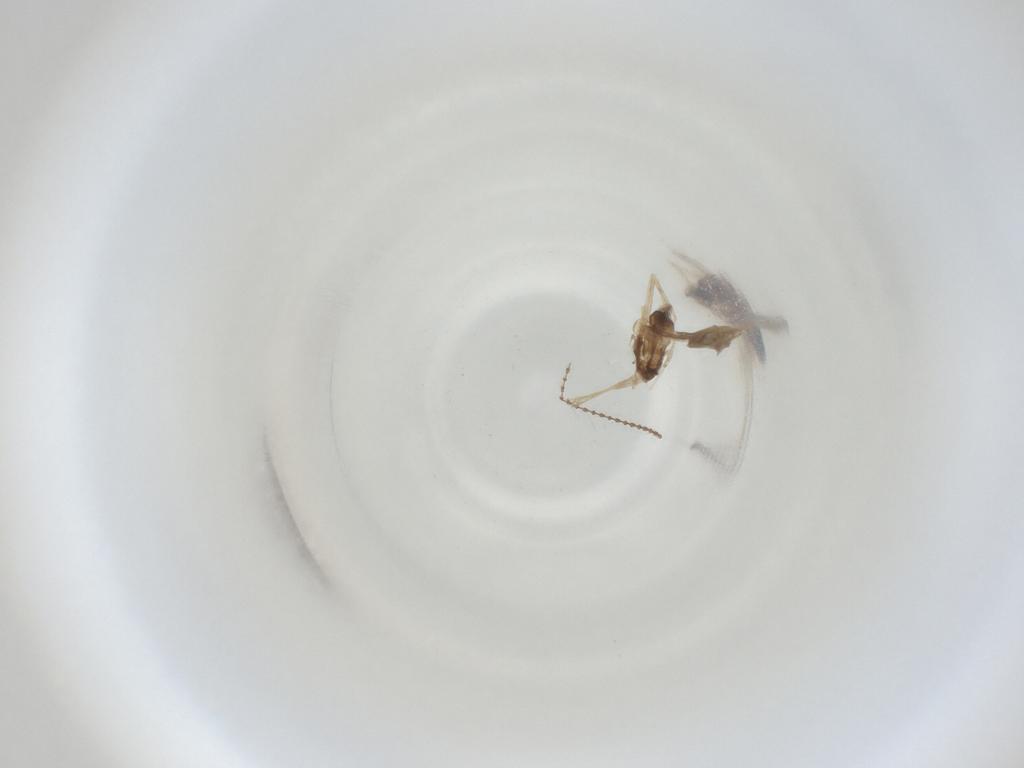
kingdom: Animalia
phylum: Arthropoda
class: Insecta
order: Diptera
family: Cecidomyiidae
